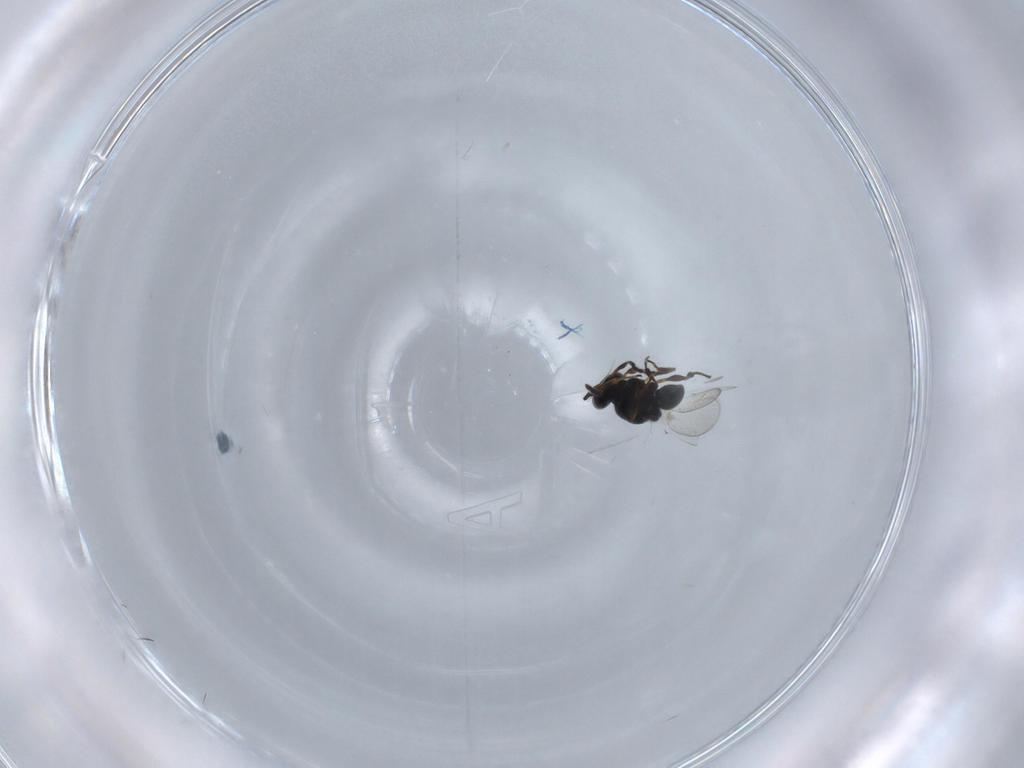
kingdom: Animalia
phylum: Arthropoda
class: Insecta
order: Hymenoptera
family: Platygastridae
